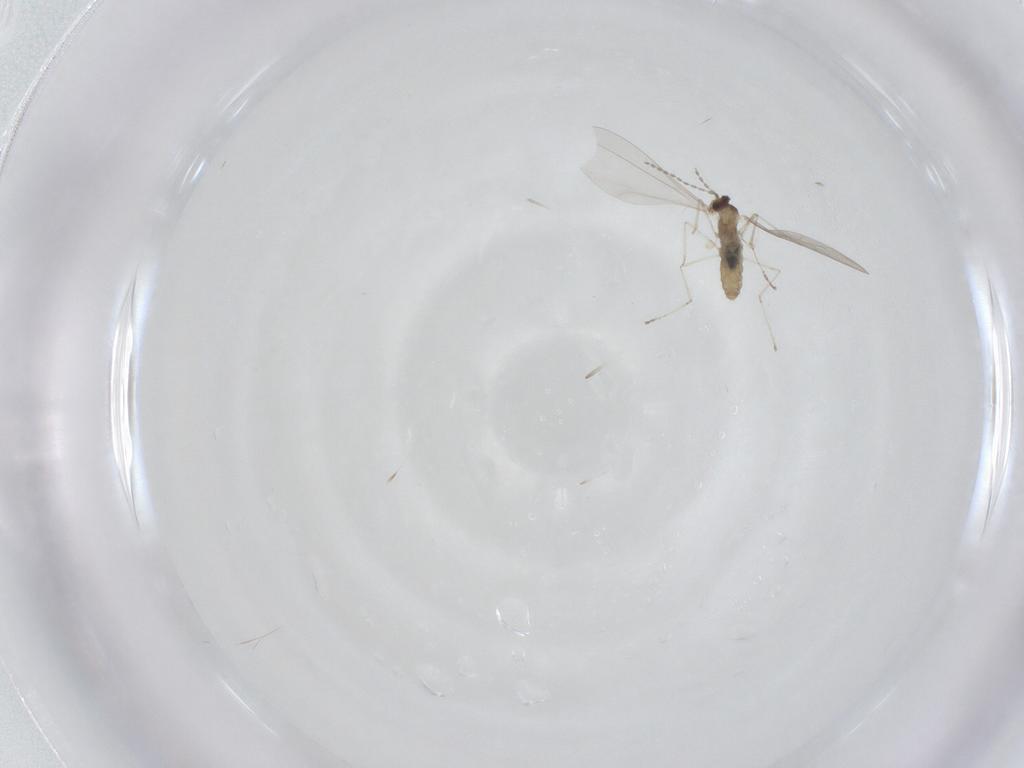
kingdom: Animalia
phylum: Arthropoda
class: Insecta
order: Diptera
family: Cecidomyiidae
